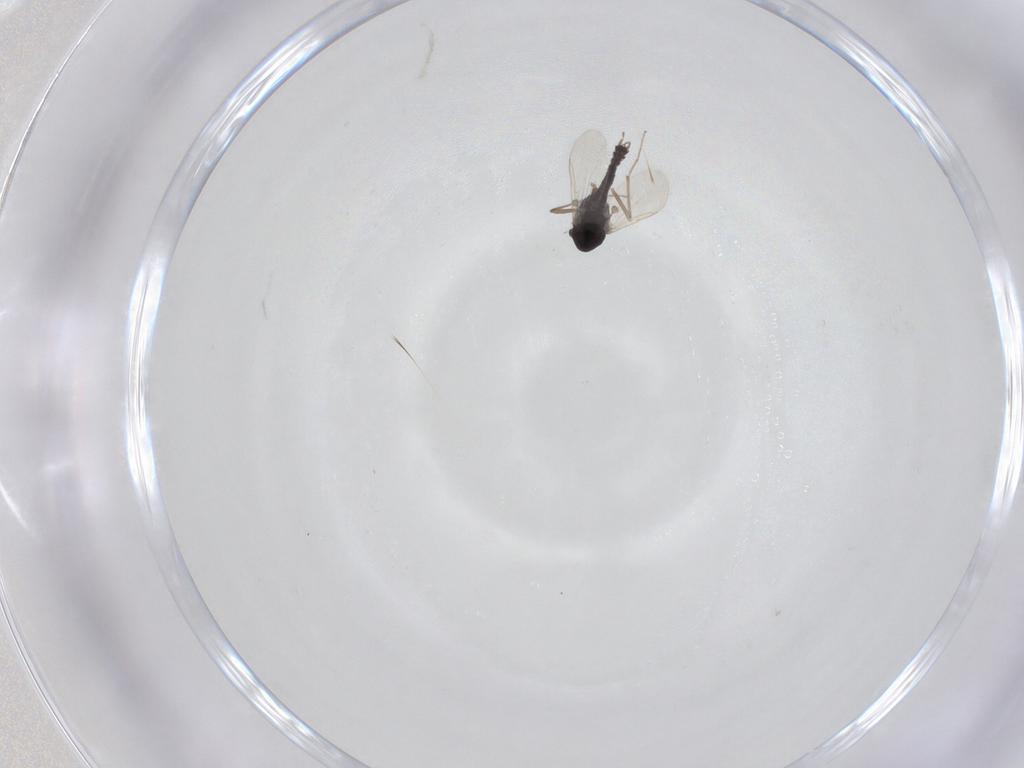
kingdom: Animalia
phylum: Arthropoda
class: Insecta
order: Diptera
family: Chironomidae
